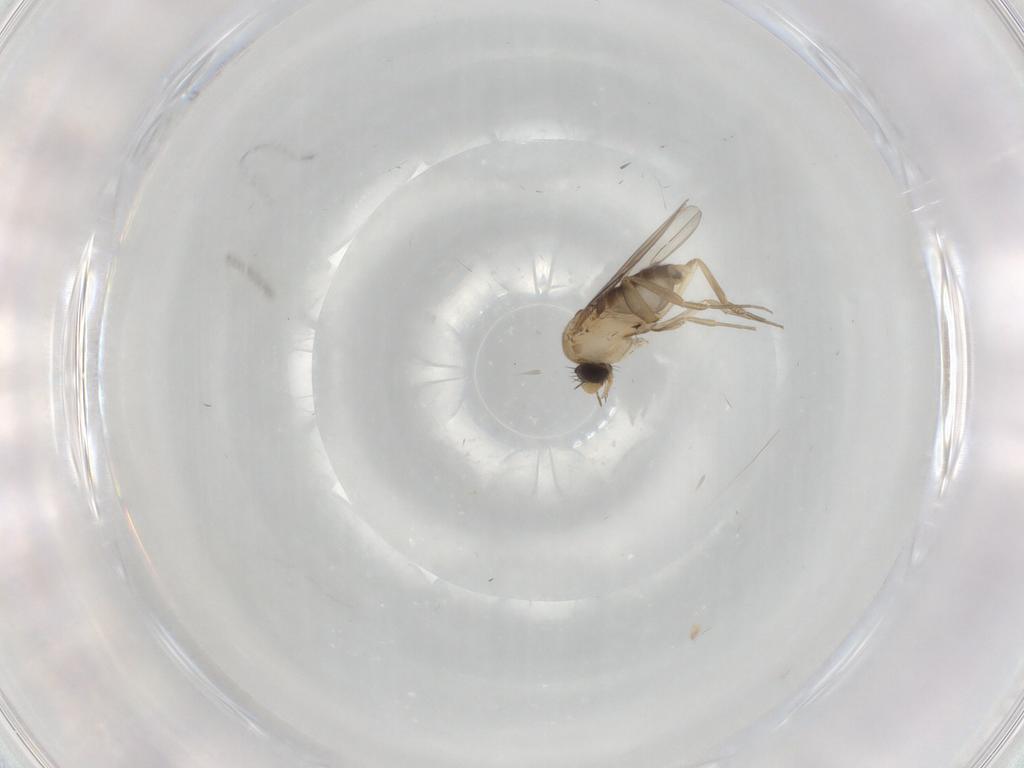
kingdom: Animalia
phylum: Arthropoda
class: Insecta
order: Diptera
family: Phoridae
